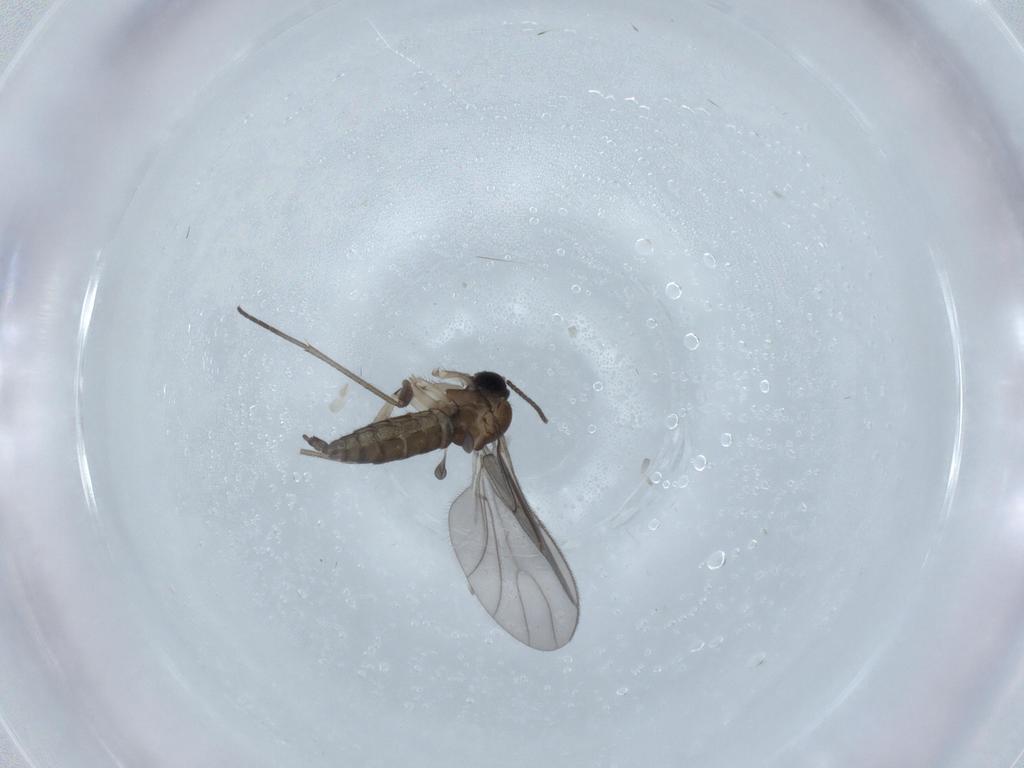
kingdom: Animalia
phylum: Arthropoda
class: Insecta
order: Diptera
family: Sciaridae
